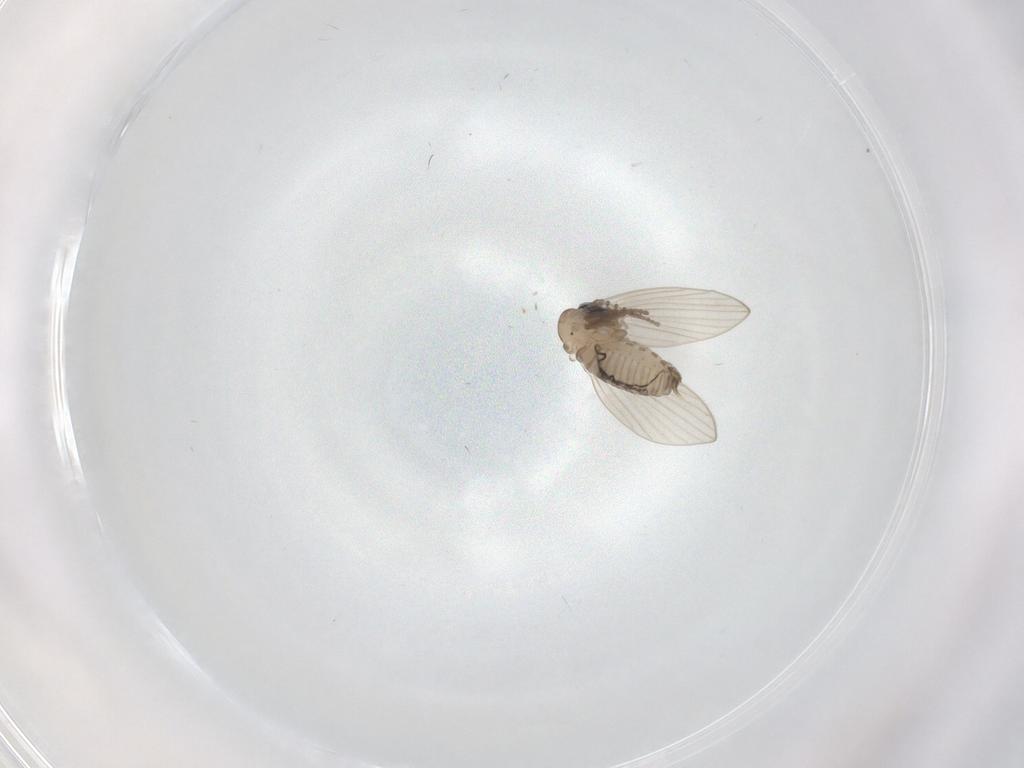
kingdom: Animalia
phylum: Arthropoda
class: Insecta
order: Diptera
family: Psychodidae
